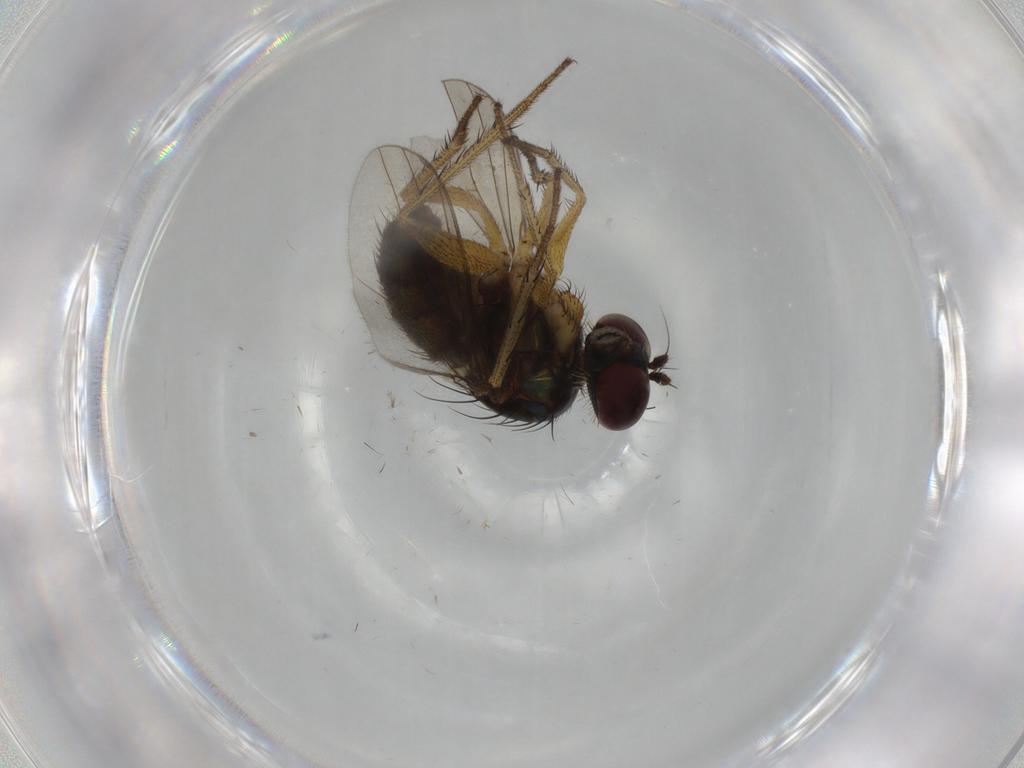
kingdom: Animalia
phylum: Arthropoda
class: Insecta
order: Diptera
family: Dolichopodidae
